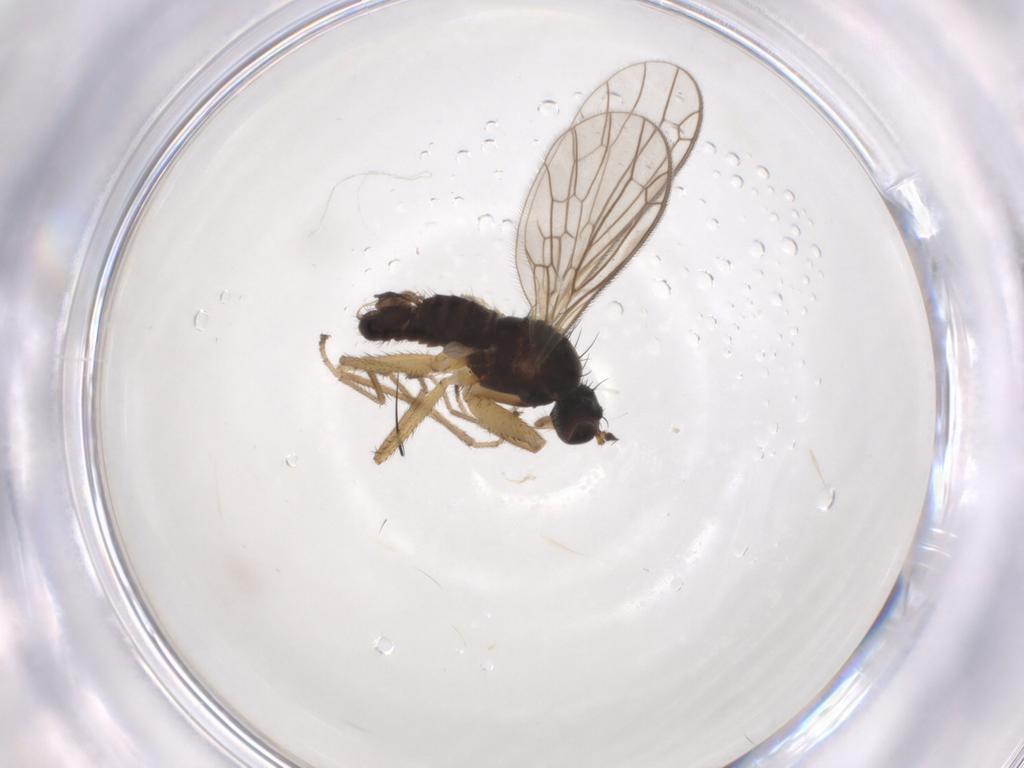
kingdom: Animalia
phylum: Arthropoda
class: Insecta
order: Diptera
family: Empididae
